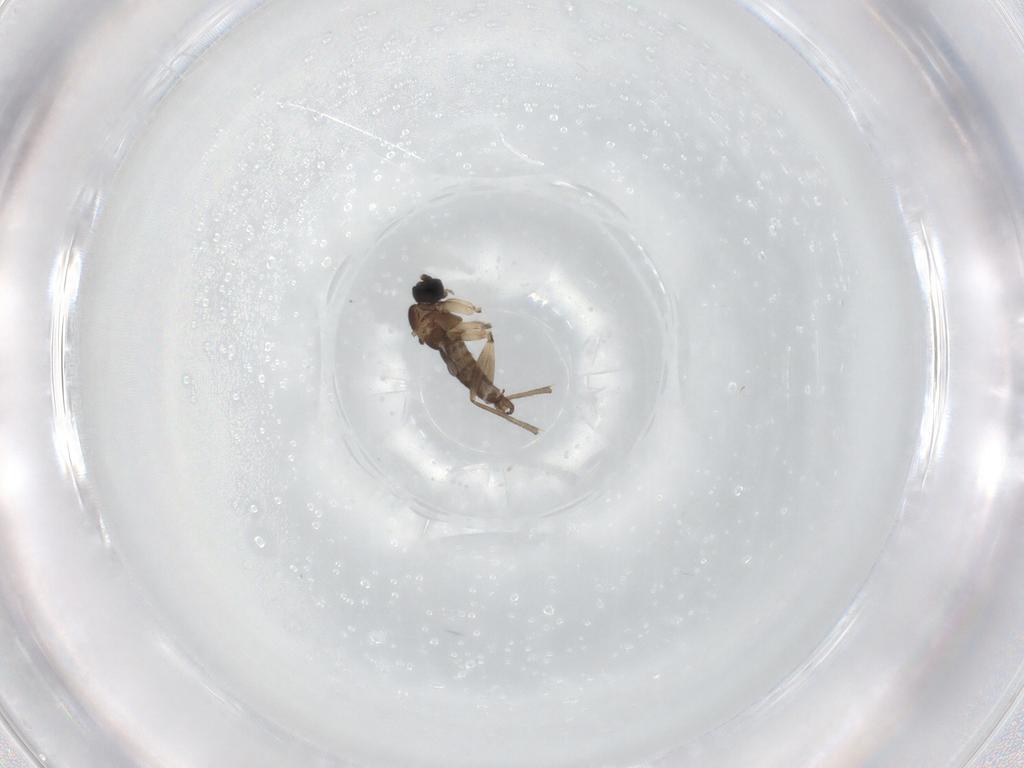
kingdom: Animalia
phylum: Arthropoda
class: Insecta
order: Diptera
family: Sciaridae
